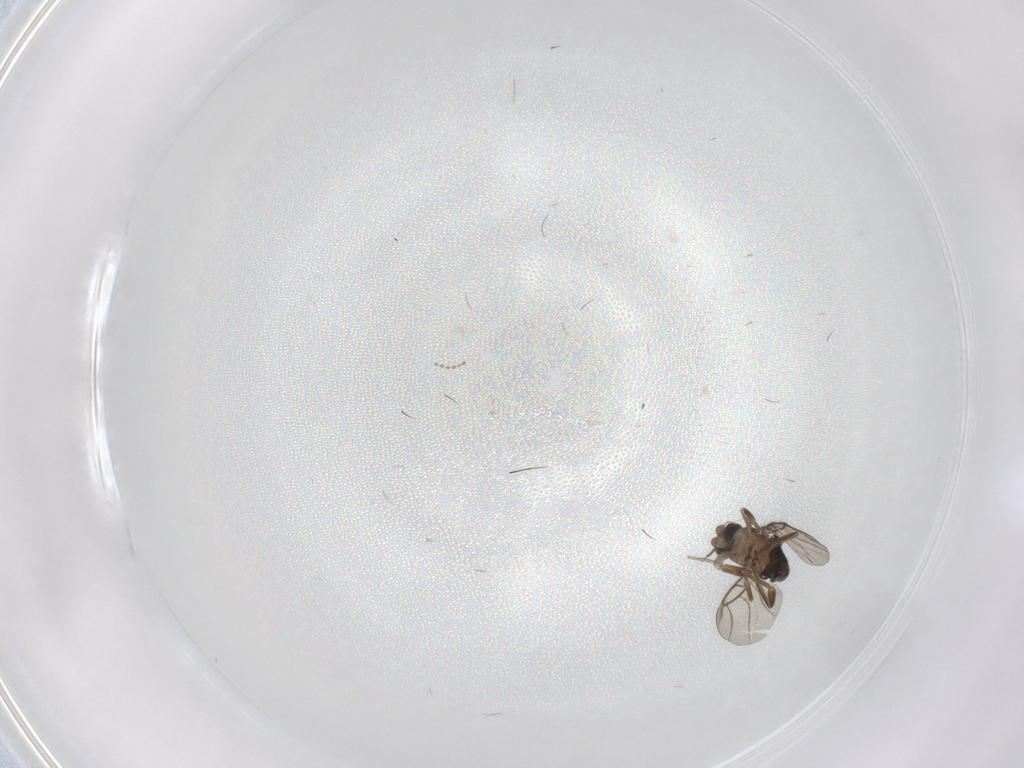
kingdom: Animalia
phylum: Arthropoda
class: Insecta
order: Diptera
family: Phoridae
